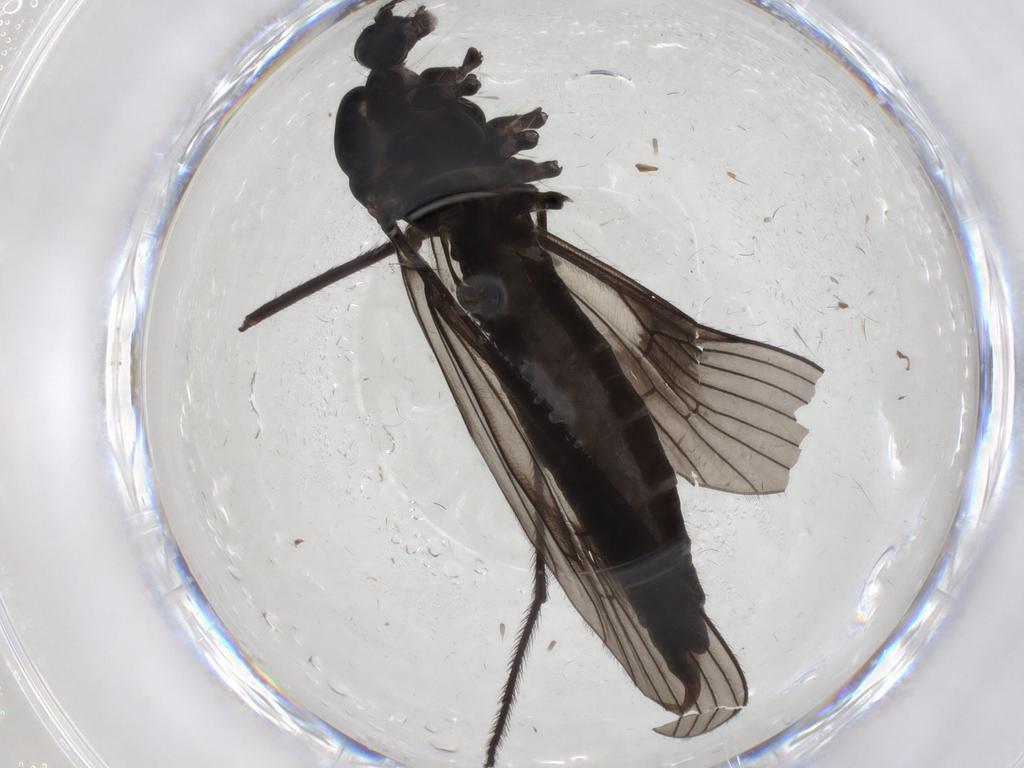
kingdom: Animalia
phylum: Arthropoda
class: Insecta
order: Diptera
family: Limoniidae
